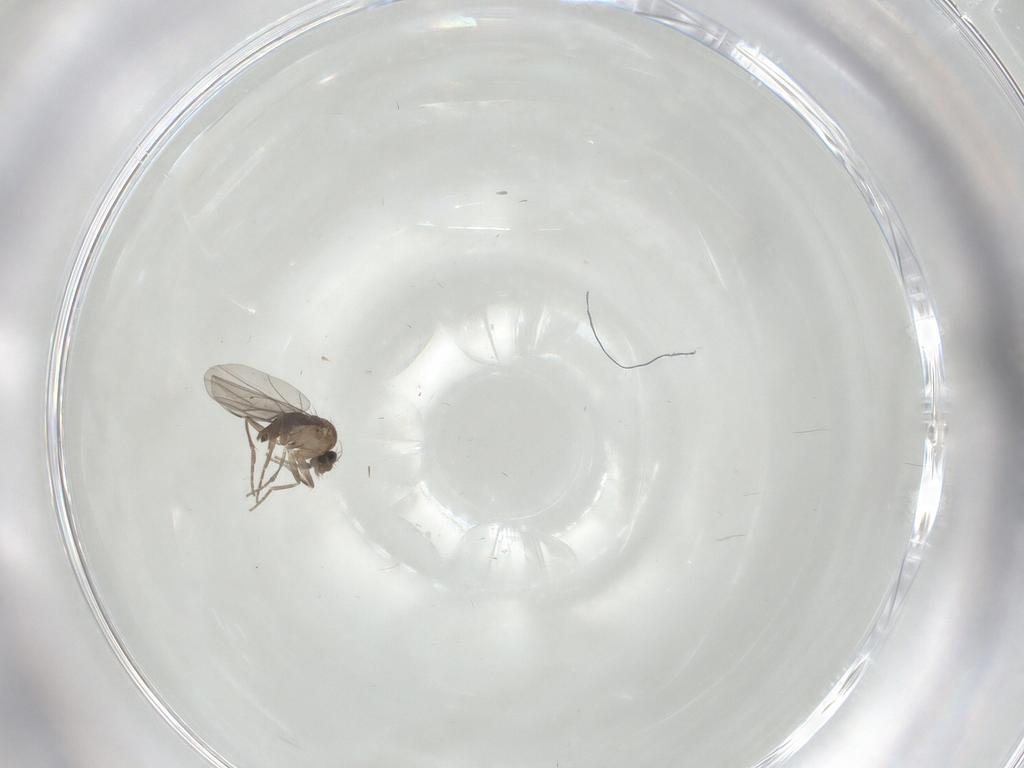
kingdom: Animalia
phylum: Arthropoda
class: Insecta
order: Diptera
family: Phoridae
